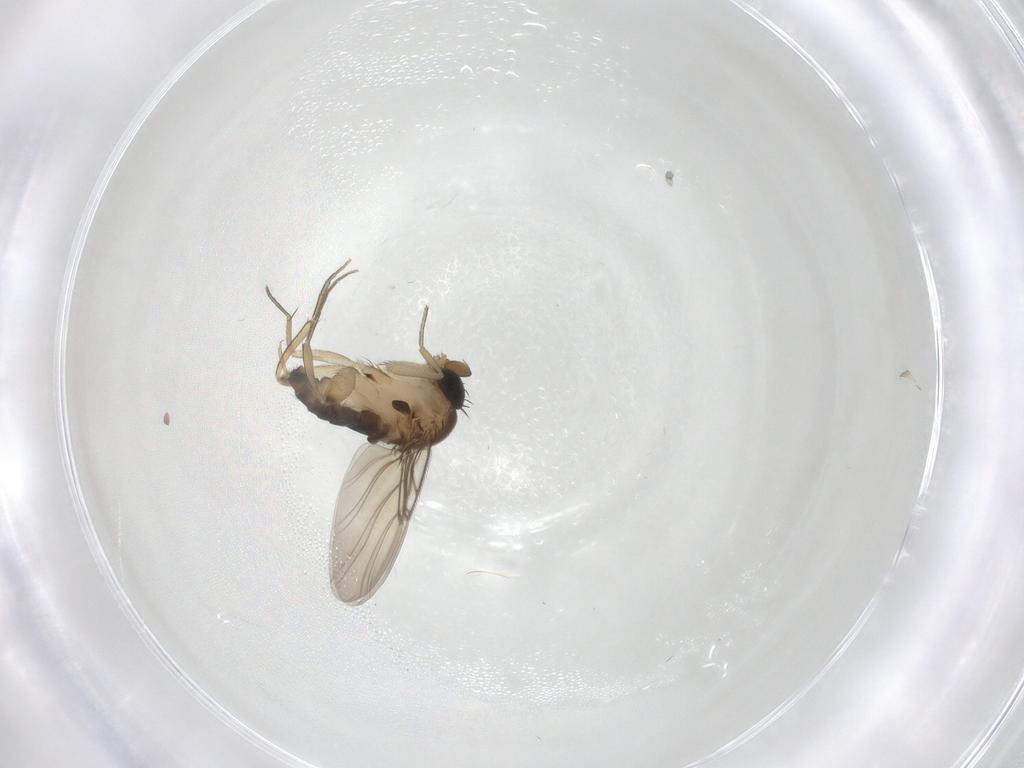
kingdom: Animalia
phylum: Arthropoda
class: Insecta
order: Diptera
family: Phoridae
